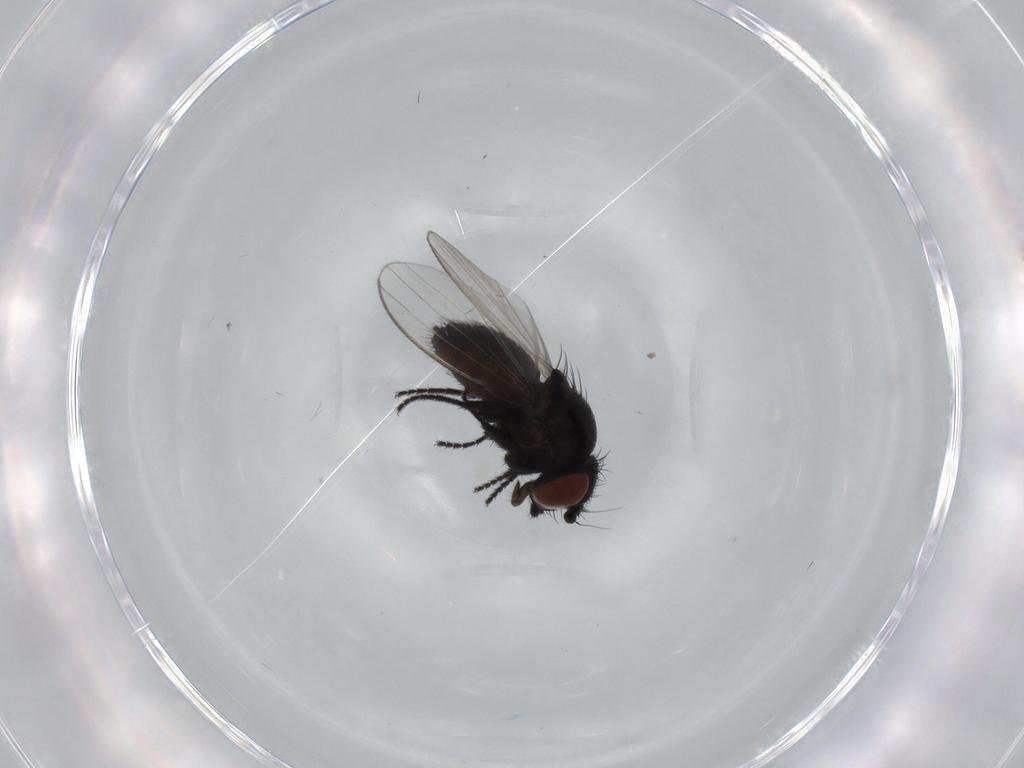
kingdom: Animalia
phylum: Arthropoda
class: Insecta
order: Diptera
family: Milichiidae
